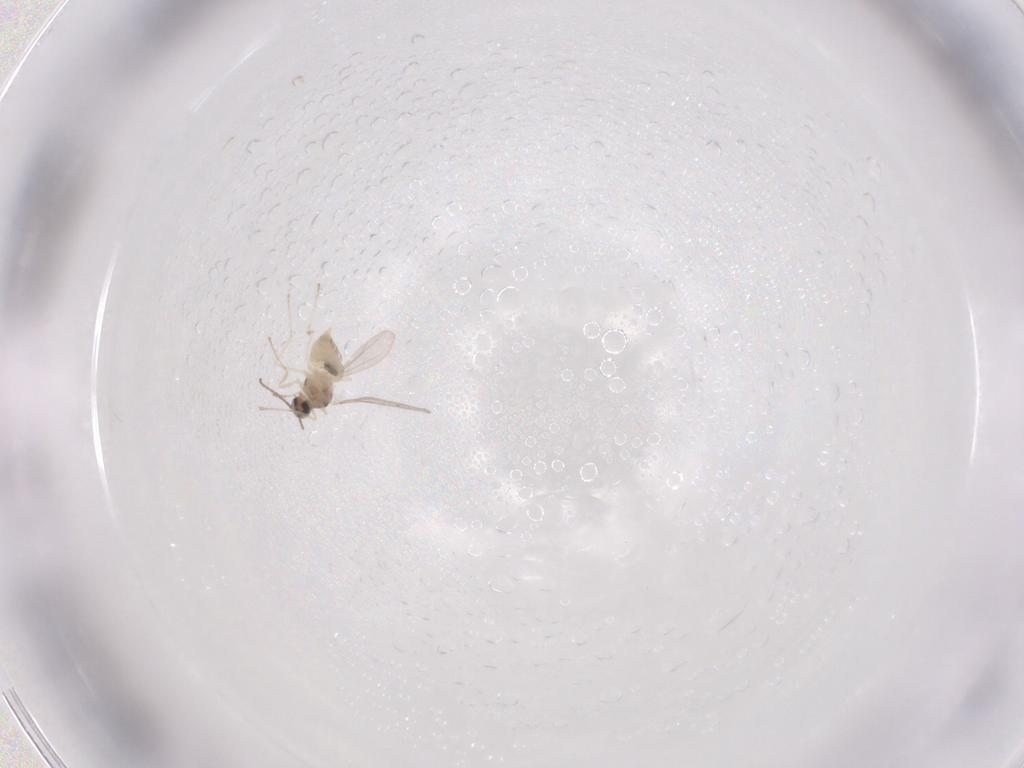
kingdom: Animalia
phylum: Arthropoda
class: Insecta
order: Diptera
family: Cecidomyiidae
